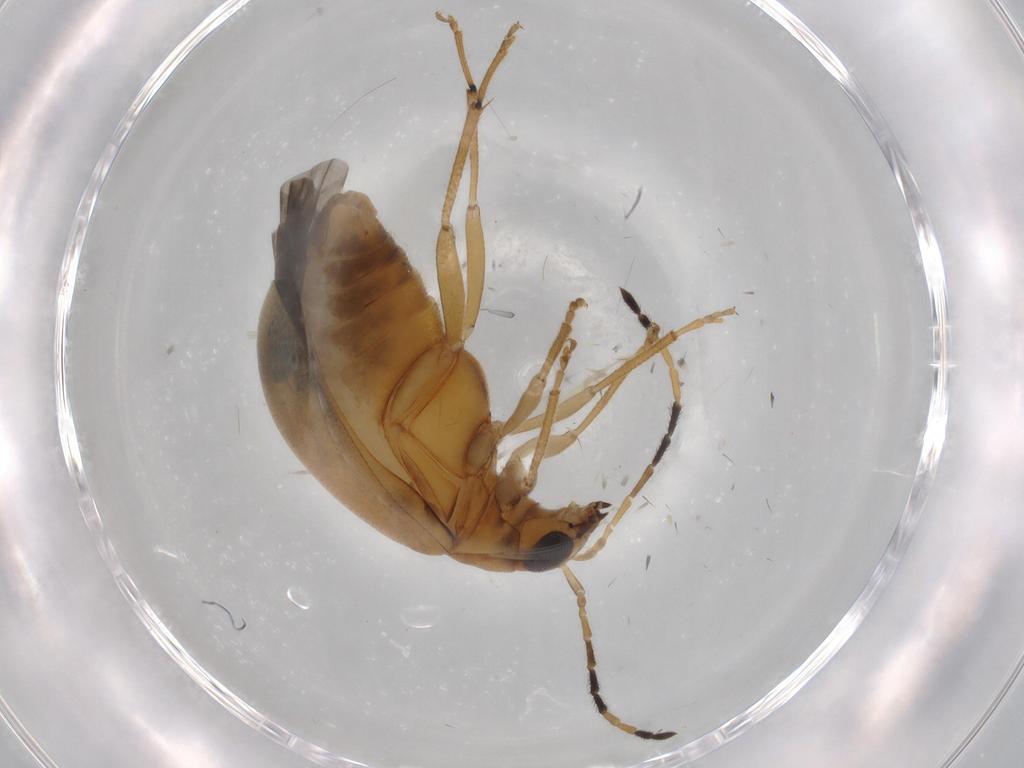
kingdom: Animalia
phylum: Arthropoda
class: Insecta
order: Coleoptera
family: Chrysomelidae
